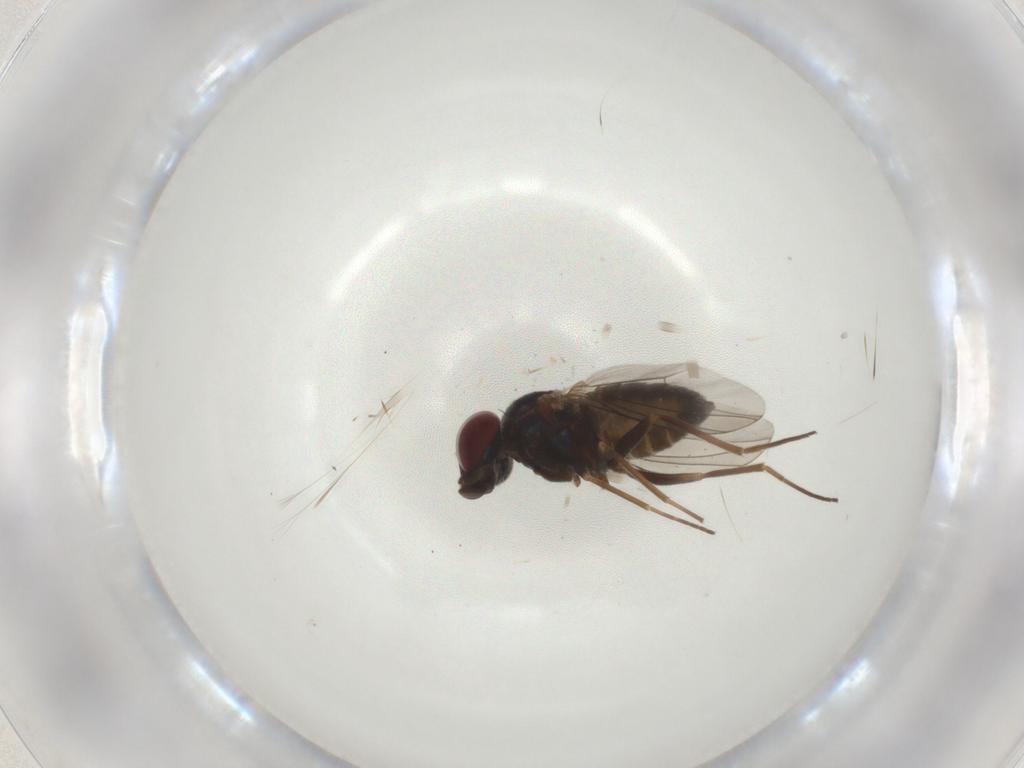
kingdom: Animalia
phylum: Arthropoda
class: Insecta
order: Diptera
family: Dolichopodidae
